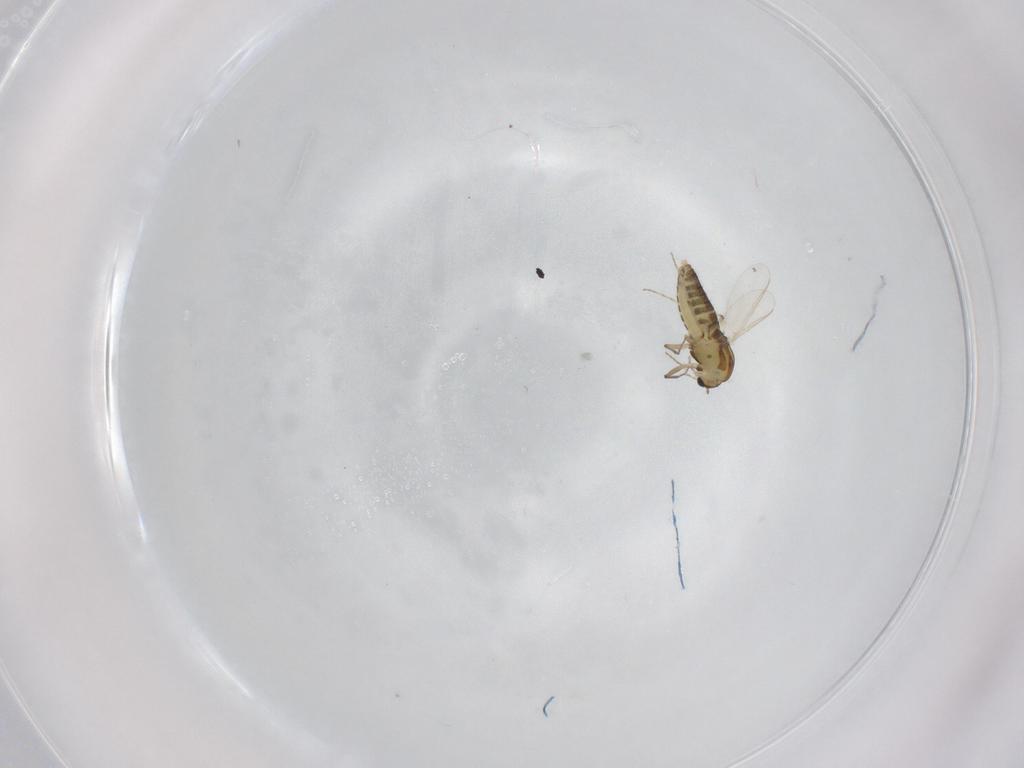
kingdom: Animalia
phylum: Arthropoda
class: Insecta
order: Diptera
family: Chironomidae
